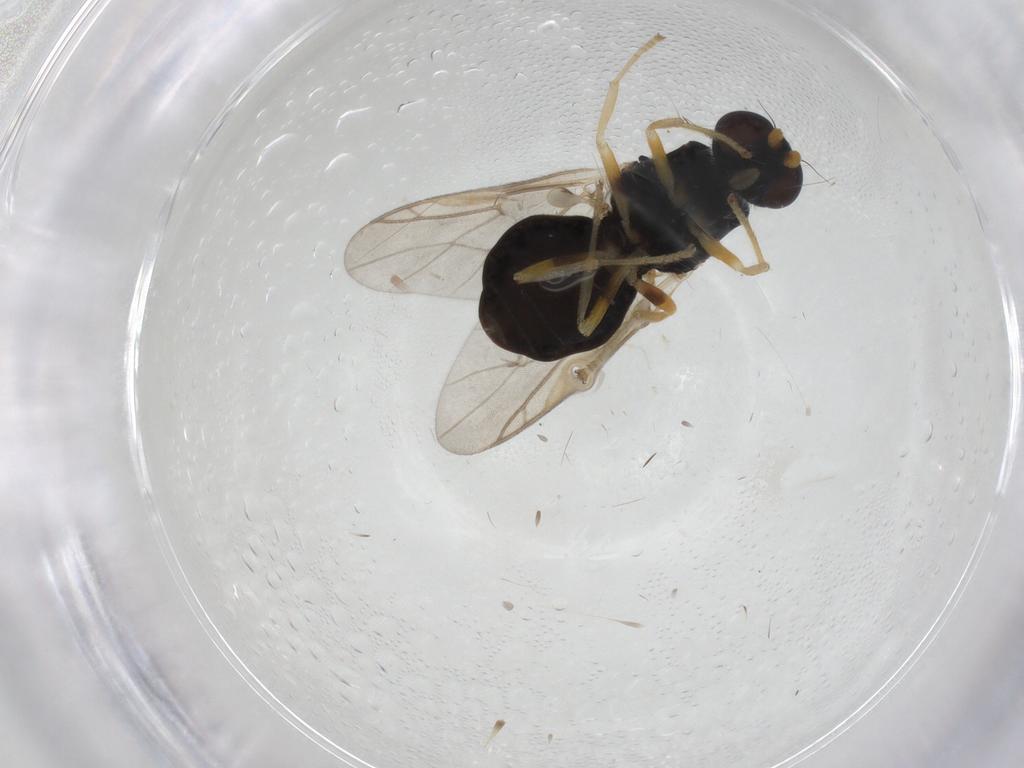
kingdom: Animalia
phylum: Arthropoda
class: Insecta
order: Diptera
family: Stratiomyidae
